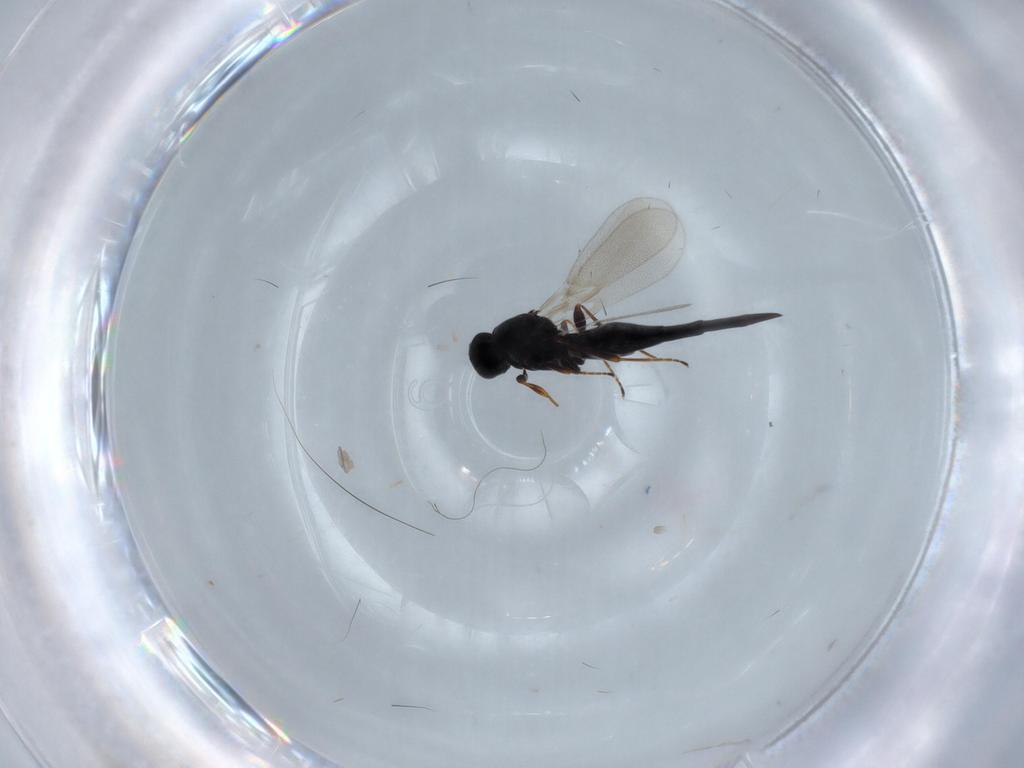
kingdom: Animalia
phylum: Arthropoda
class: Insecta
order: Diptera
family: Mythicomyiidae
